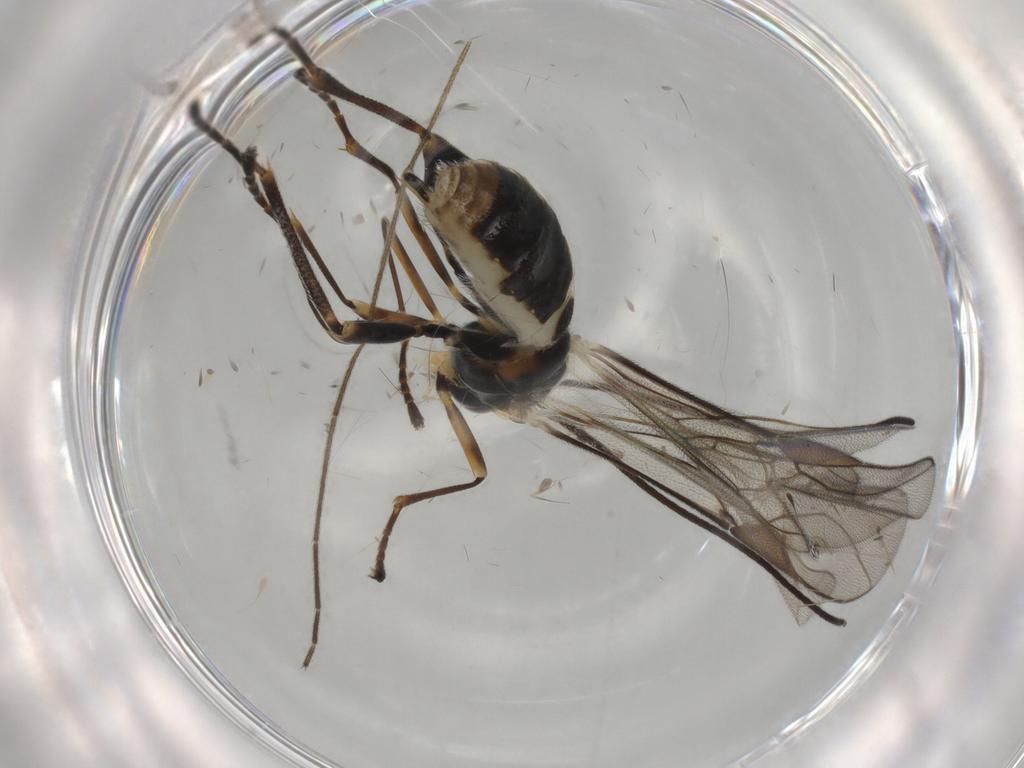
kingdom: Animalia
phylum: Arthropoda
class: Insecta
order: Hymenoptera
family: Braconidae
